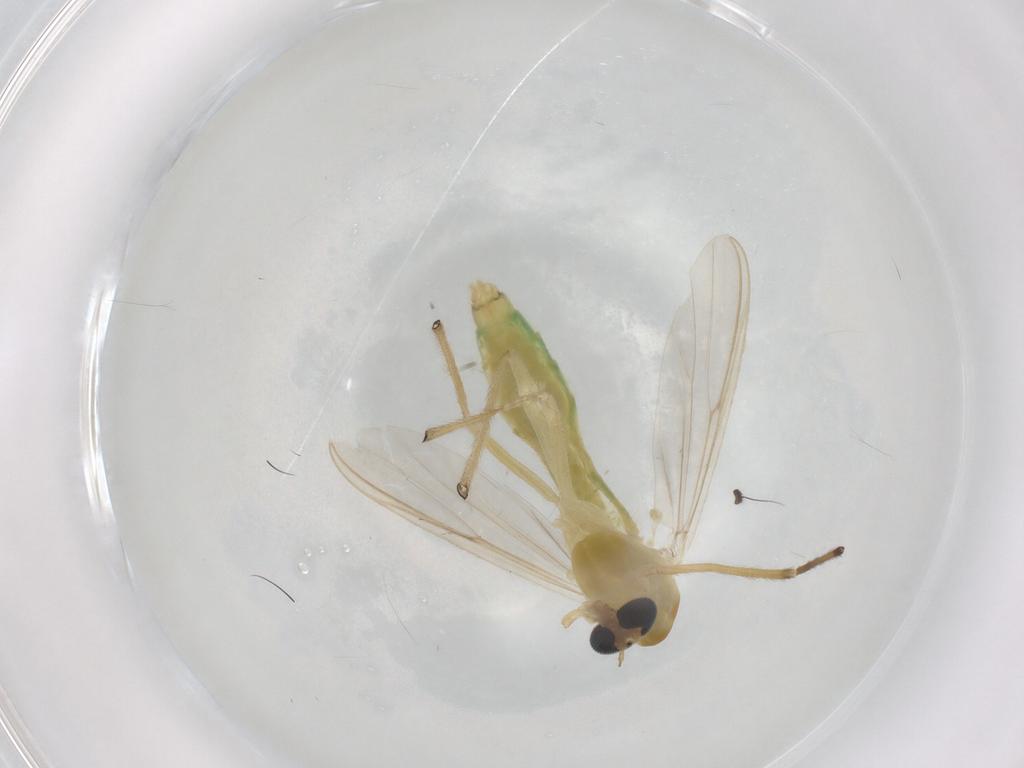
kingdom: Animalia
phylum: Arthropoda
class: Insecta
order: Diptera
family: Chironomidae
